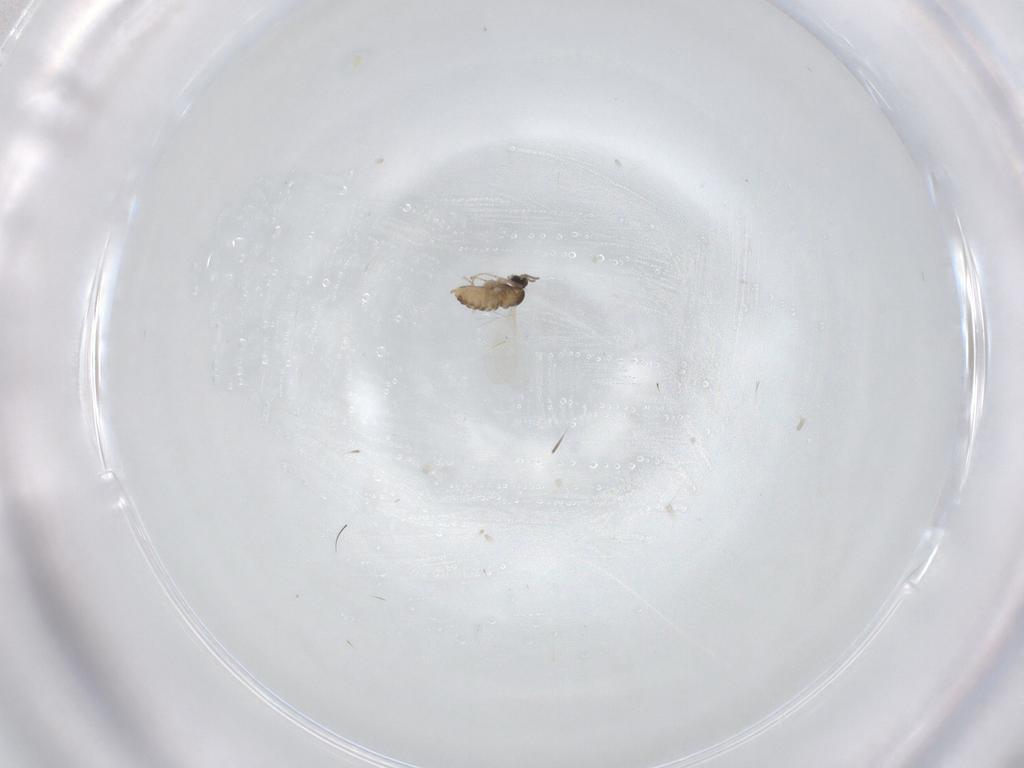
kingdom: Animalia
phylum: Arthropoda
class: Insecta
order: Diptera
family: Cecidomyiidae
